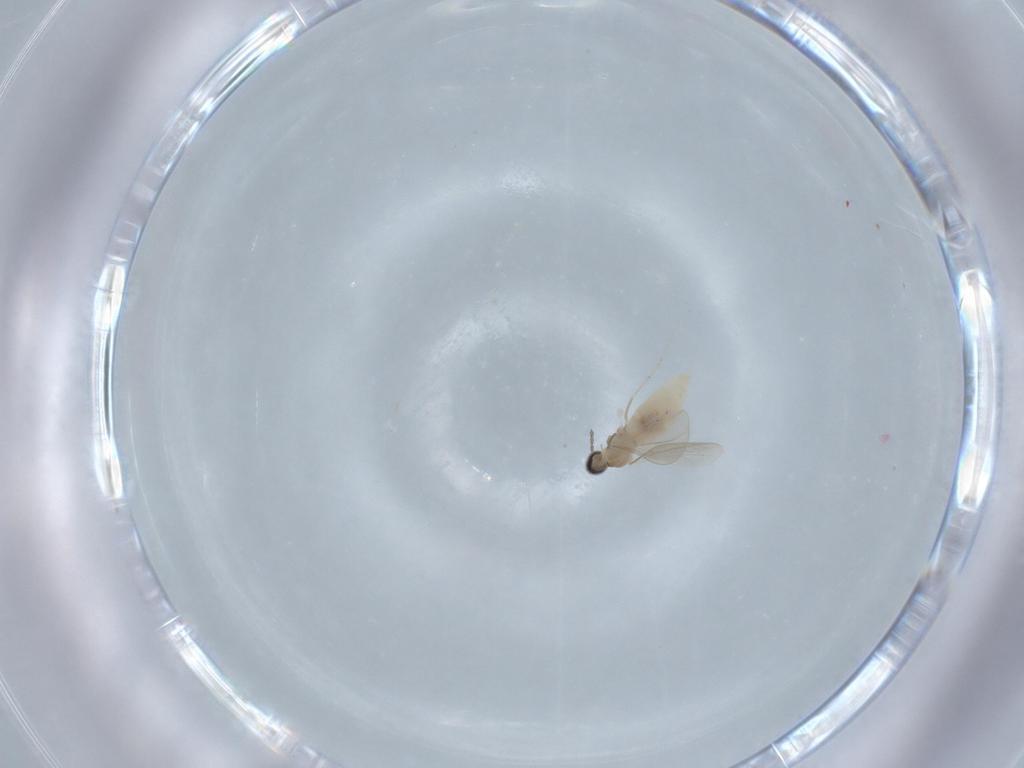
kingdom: Animalia
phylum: Arthropoda
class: Insecta
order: Diptera
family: Cecidomyiidae
